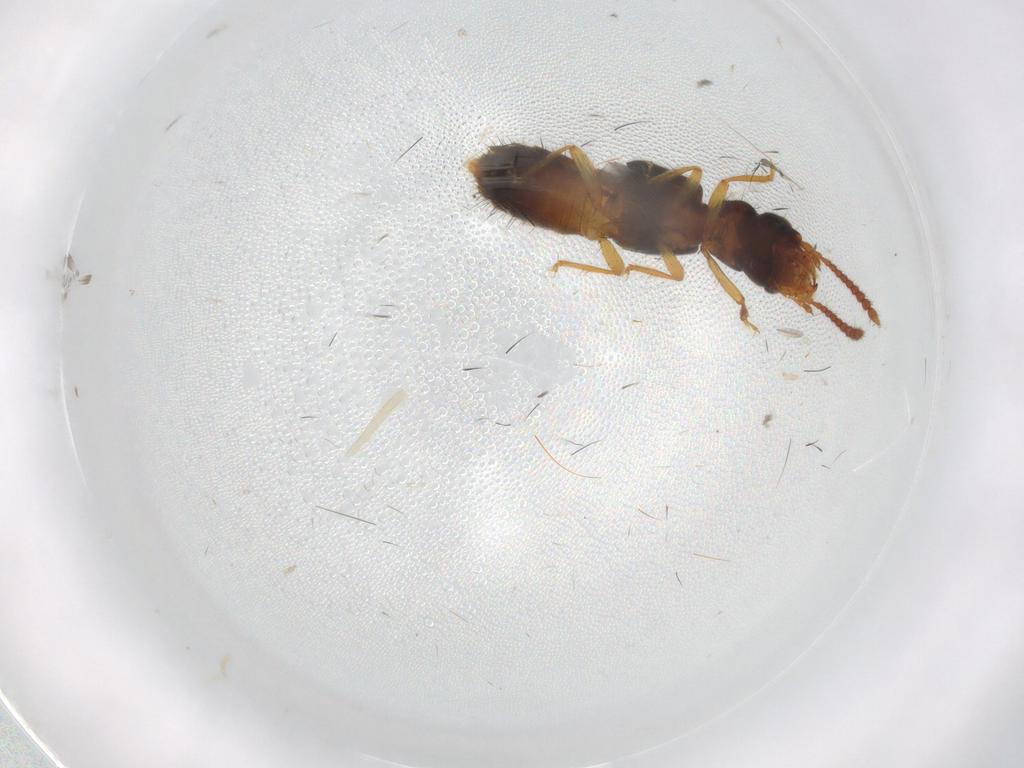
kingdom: Animalia
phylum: Arthropoda
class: Insecta
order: Coleoptera
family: Staphylinidae
